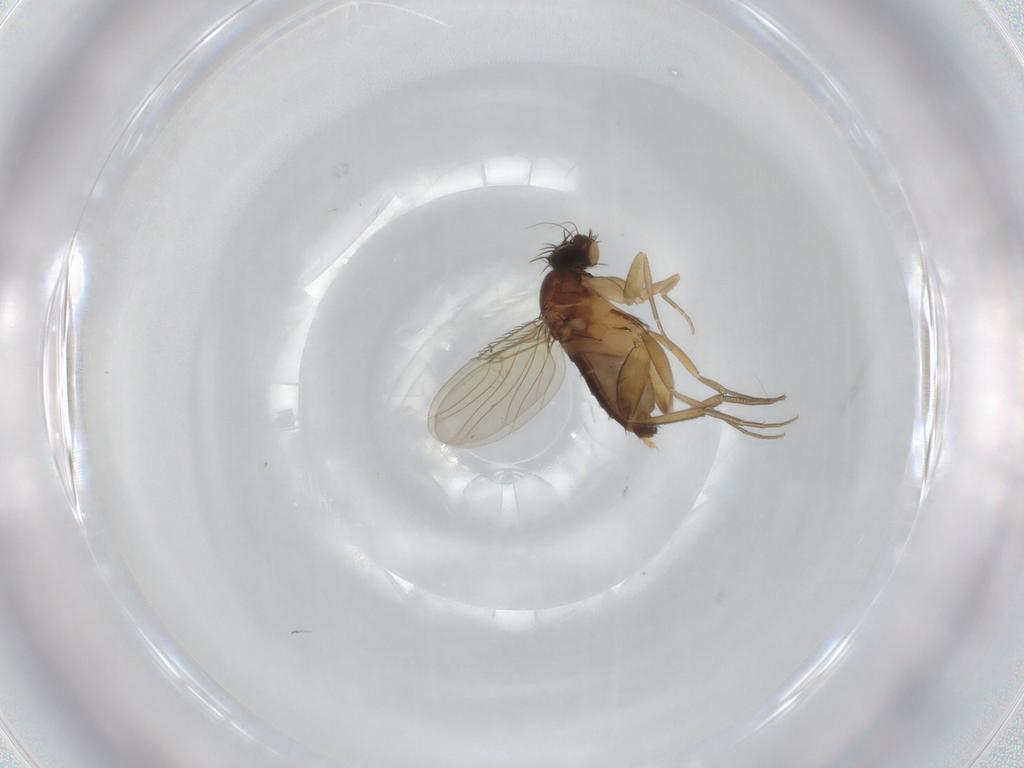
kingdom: Animalia
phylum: Arthropoda
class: Insecta
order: Diptera
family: Phoridae
